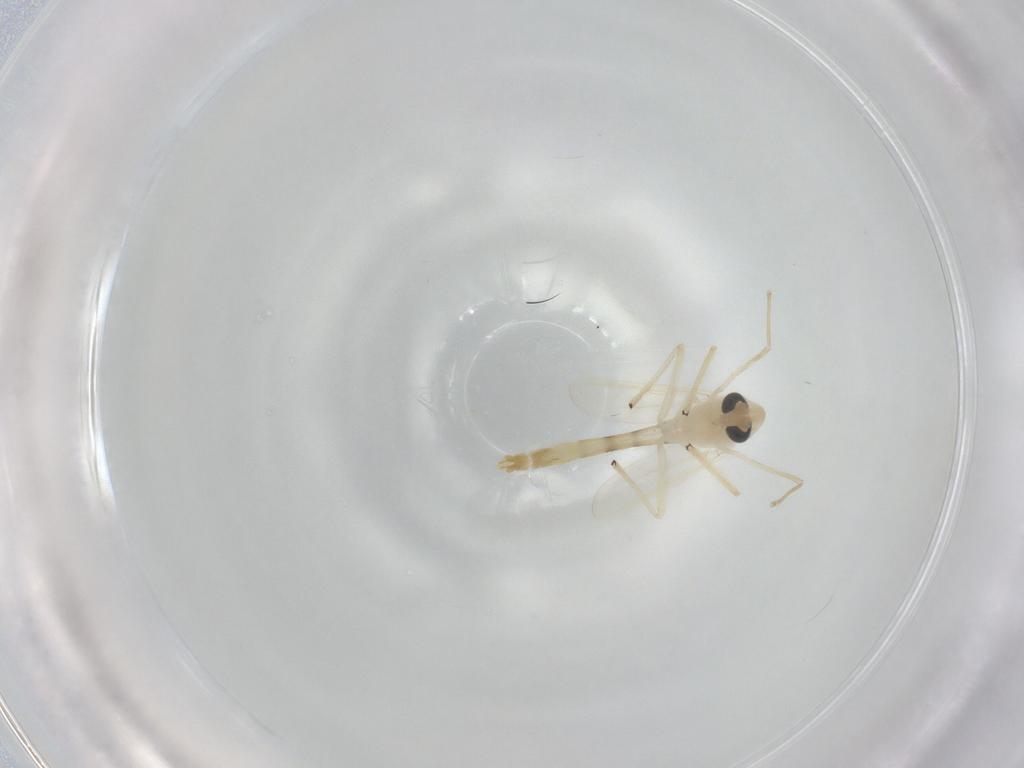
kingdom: Animalia
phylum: Arthropoda
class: Insecta
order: Diptera
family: Chironomidae
